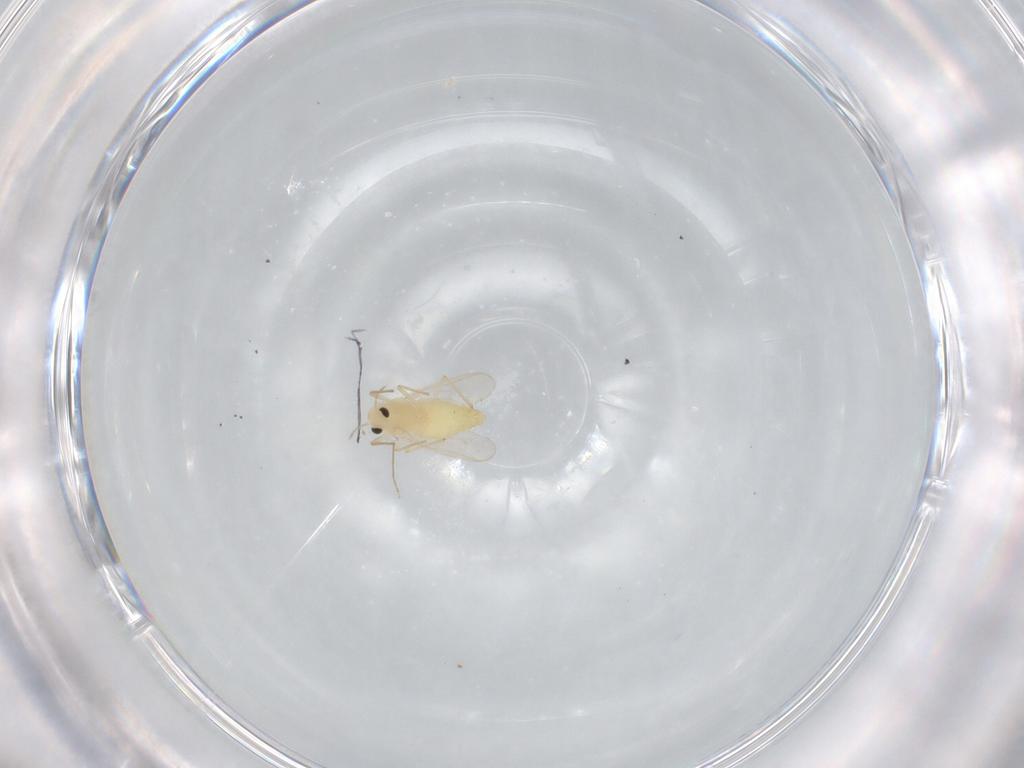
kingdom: Animalia
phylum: Arthropoda
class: Insecta
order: Diptera
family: Chironomidae
